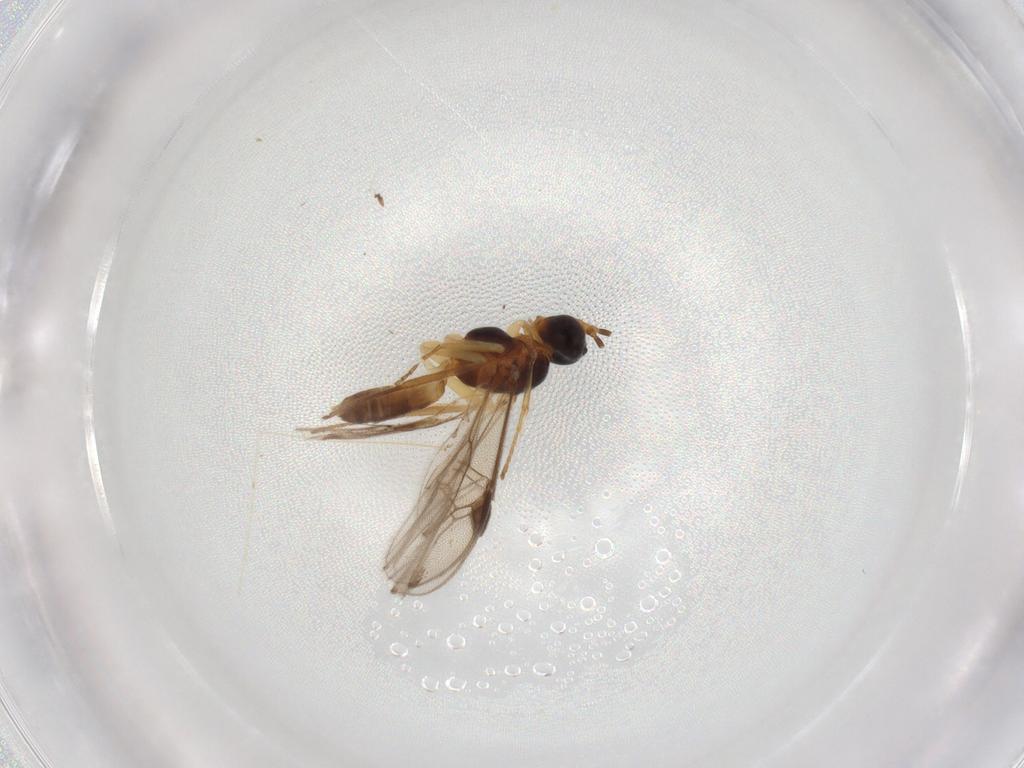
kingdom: Animalia
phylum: Arthropoda
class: Insecta
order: Hymenoptera
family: Braconidae
